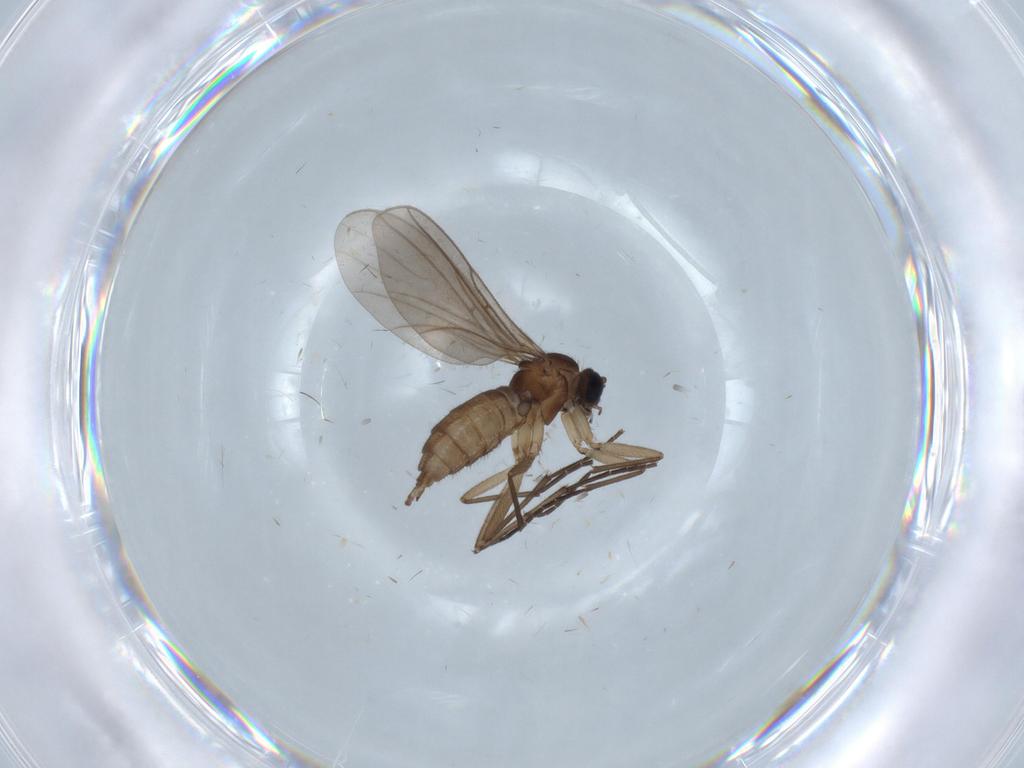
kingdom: Animalia
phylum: Arthropoda
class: Insecta
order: Diptera
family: Sciaridae
